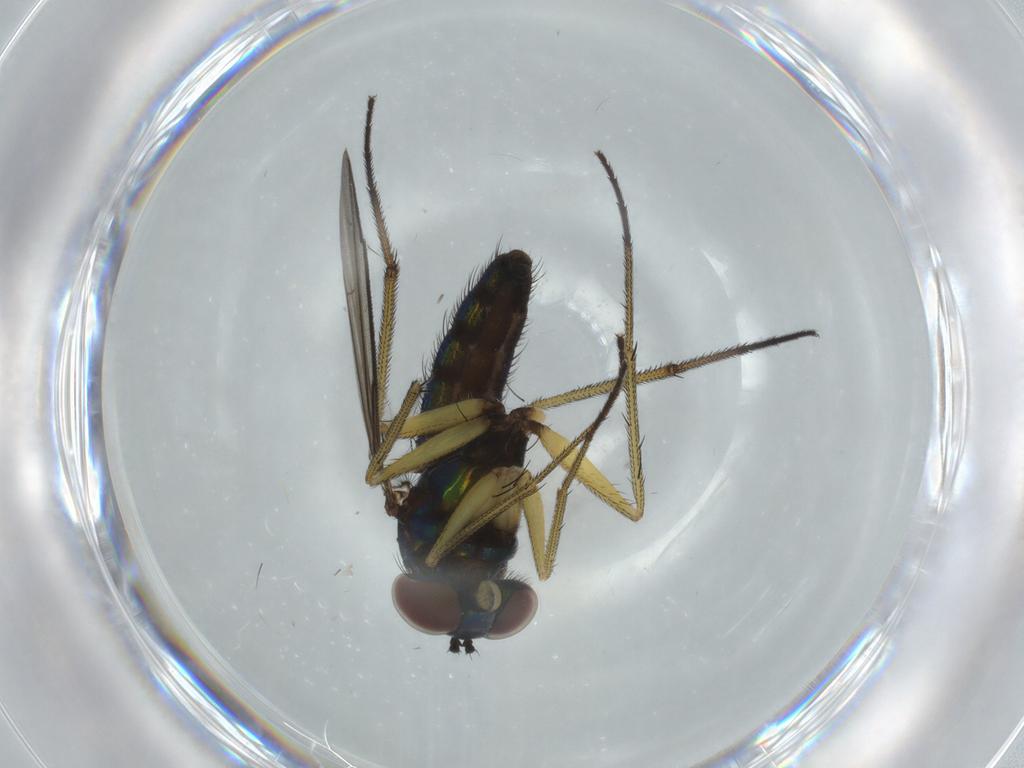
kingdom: Animalia
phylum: Arthropoda
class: Insecta
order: Diptera
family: Dolichopodidae
